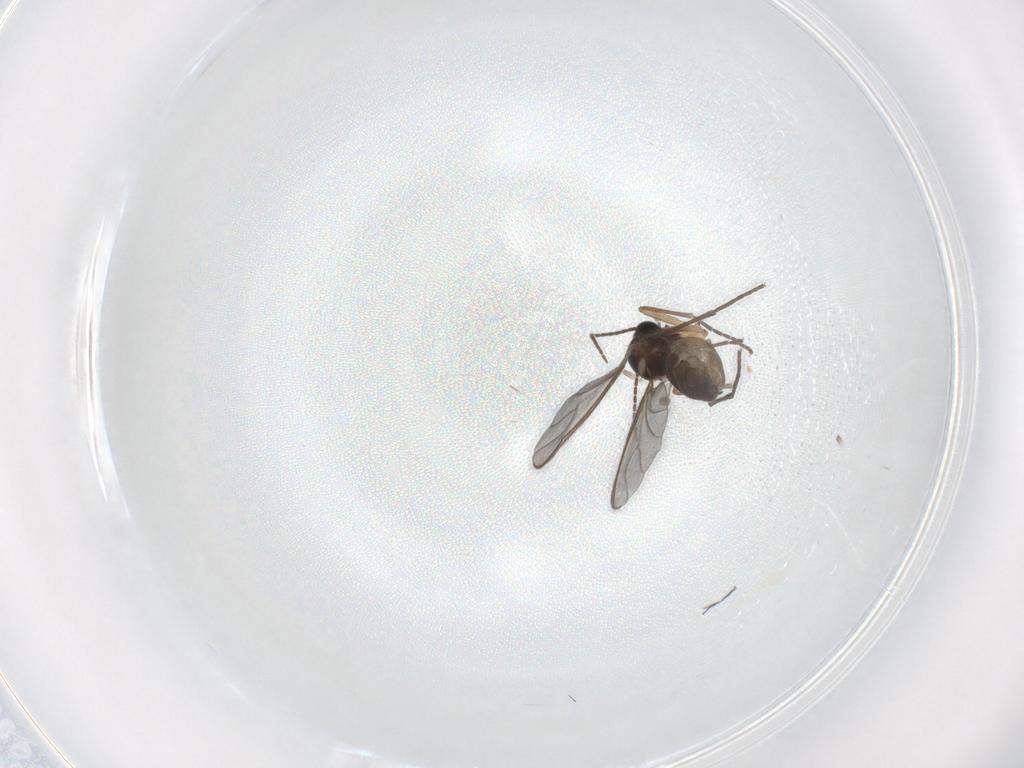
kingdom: Animalia
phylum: Arthropoda
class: Insecta
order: Diptera
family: Sciaridae
